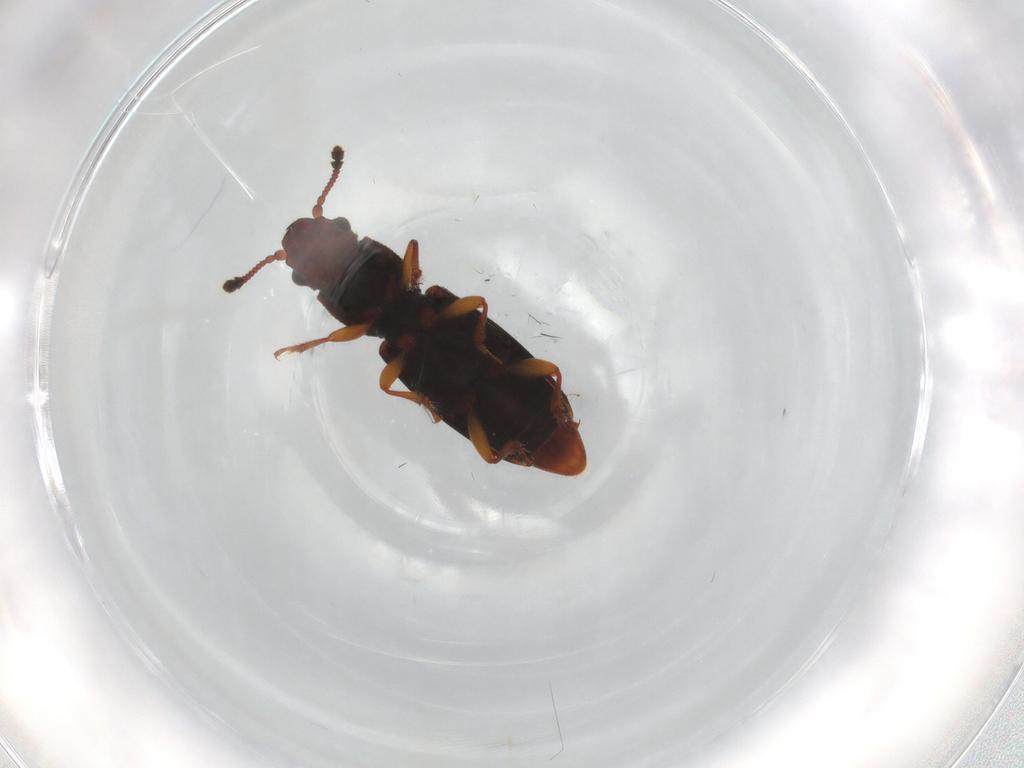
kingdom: Animalia
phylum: Arthropoda
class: Insecta
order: Coleoptera
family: Monotomidae
